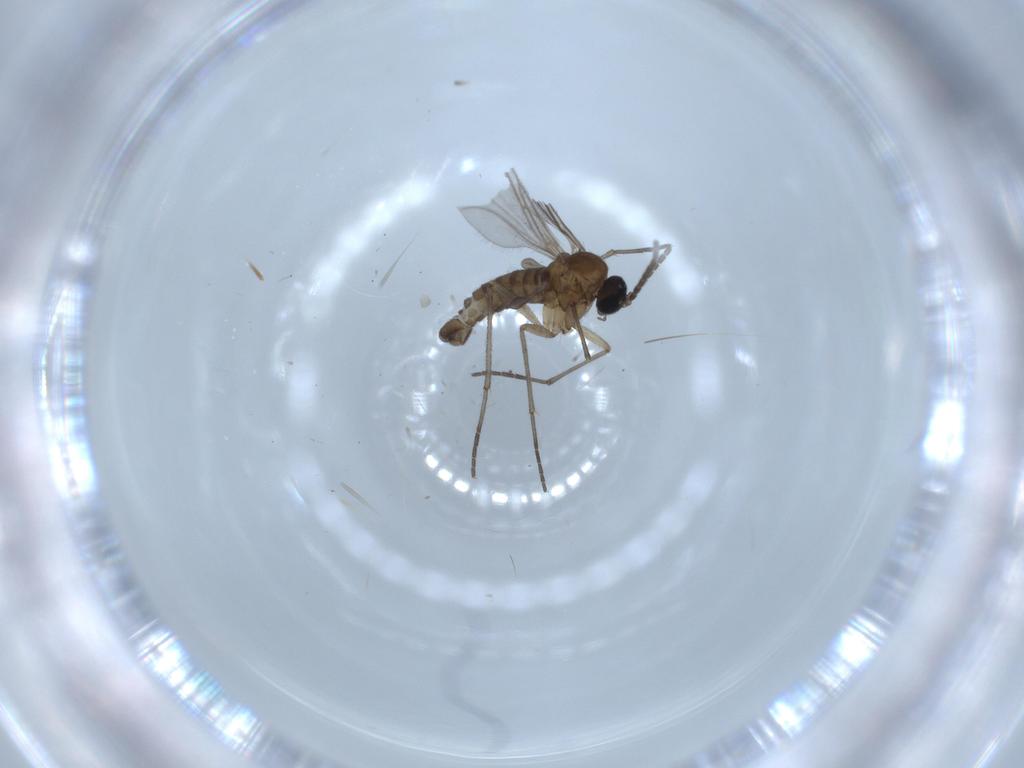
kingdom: Animalia
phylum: Arthropoda
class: Insecta
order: Diptera
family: Sciaridae
